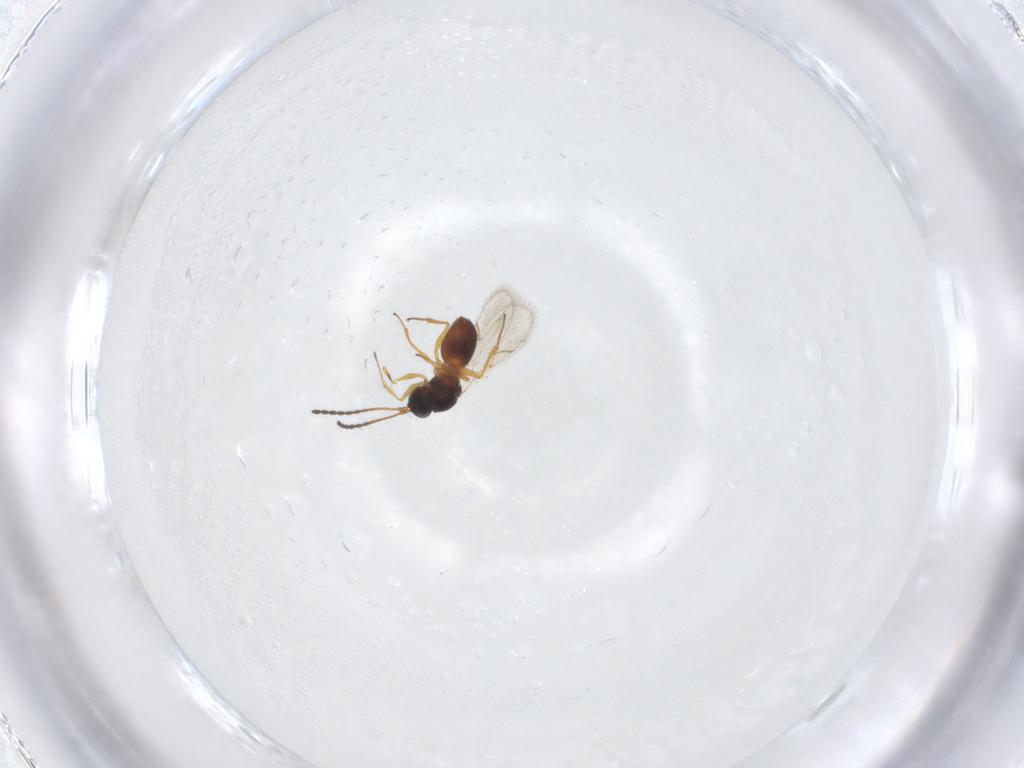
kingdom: Animalia
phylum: Arthropoda
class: Insecta
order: Hymenoptera
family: Figitidae
